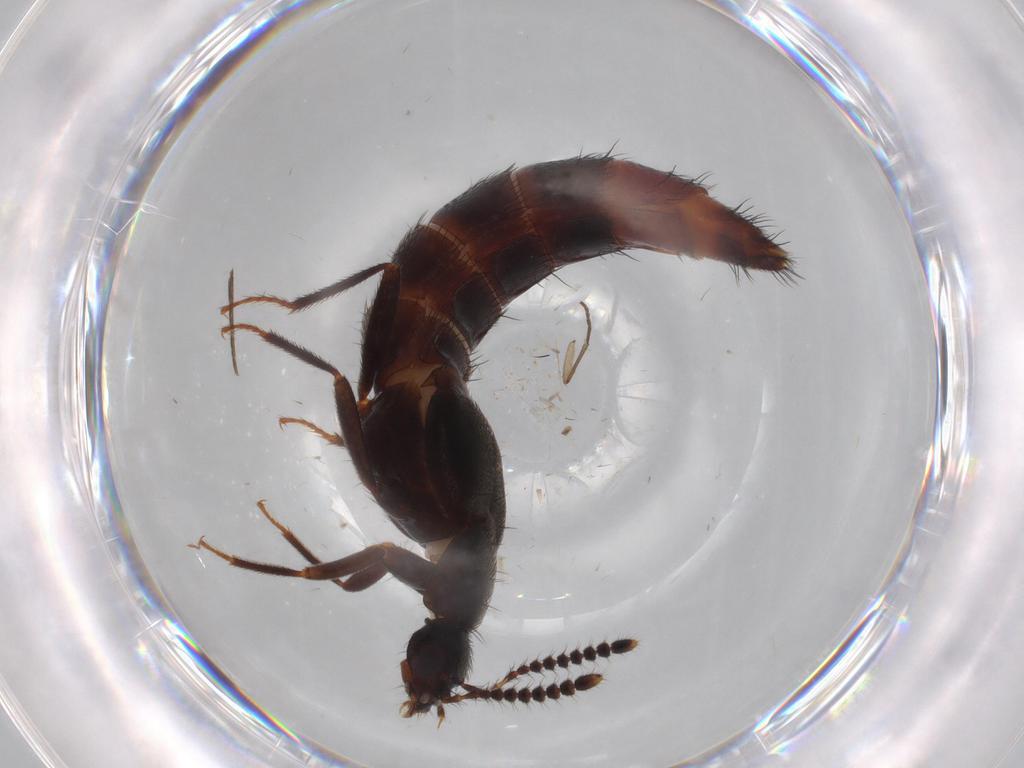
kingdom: Animalia
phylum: Arthropoda
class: Insecta
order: Coleoptera
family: Staphylinidae
